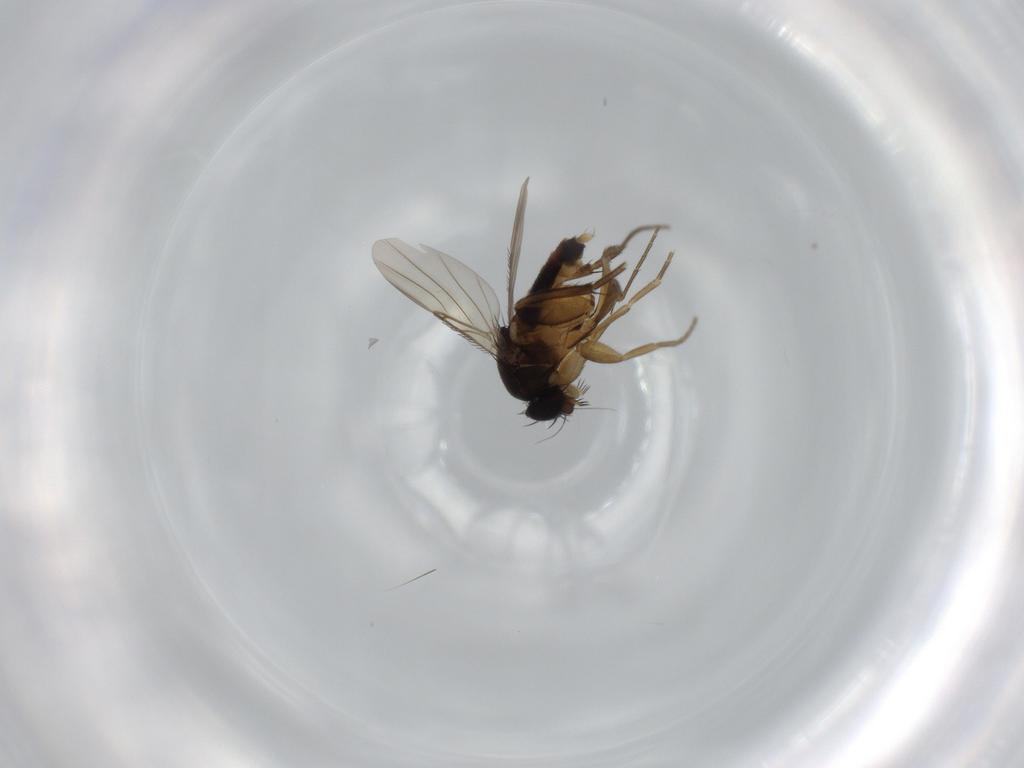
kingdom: Animalia
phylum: Arthropoda
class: Insecta
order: Diptera
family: Phoridae
